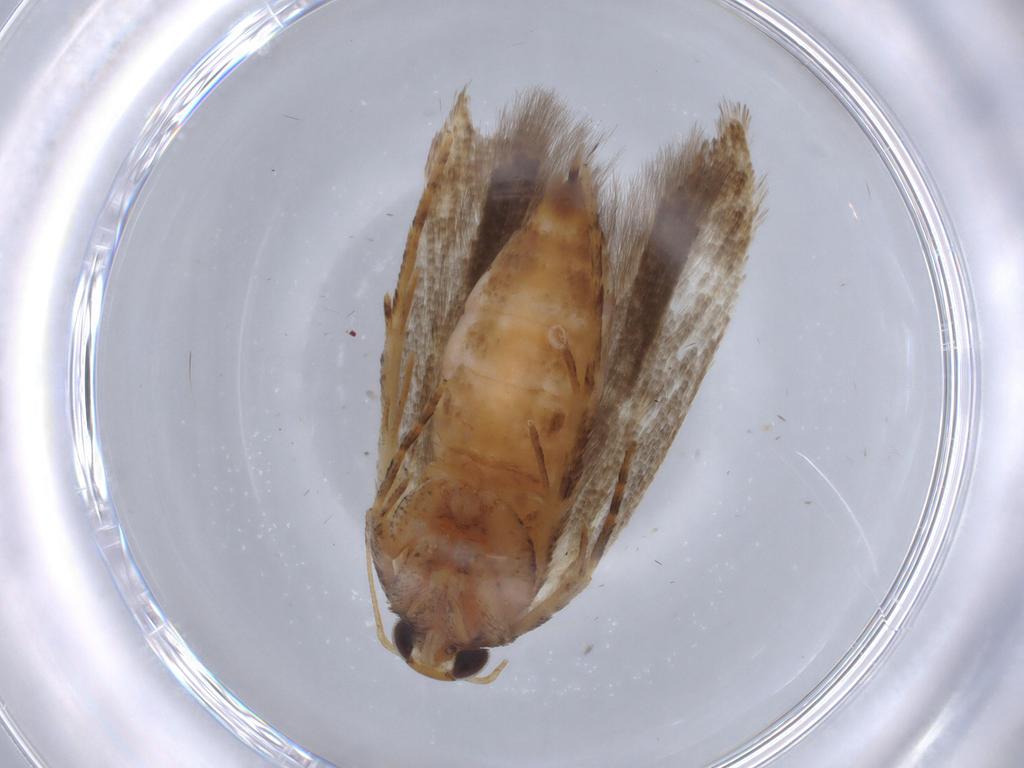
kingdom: Animalia
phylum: Arthropoda
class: Insecta
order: Lepidoptera
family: Gelechiidae
